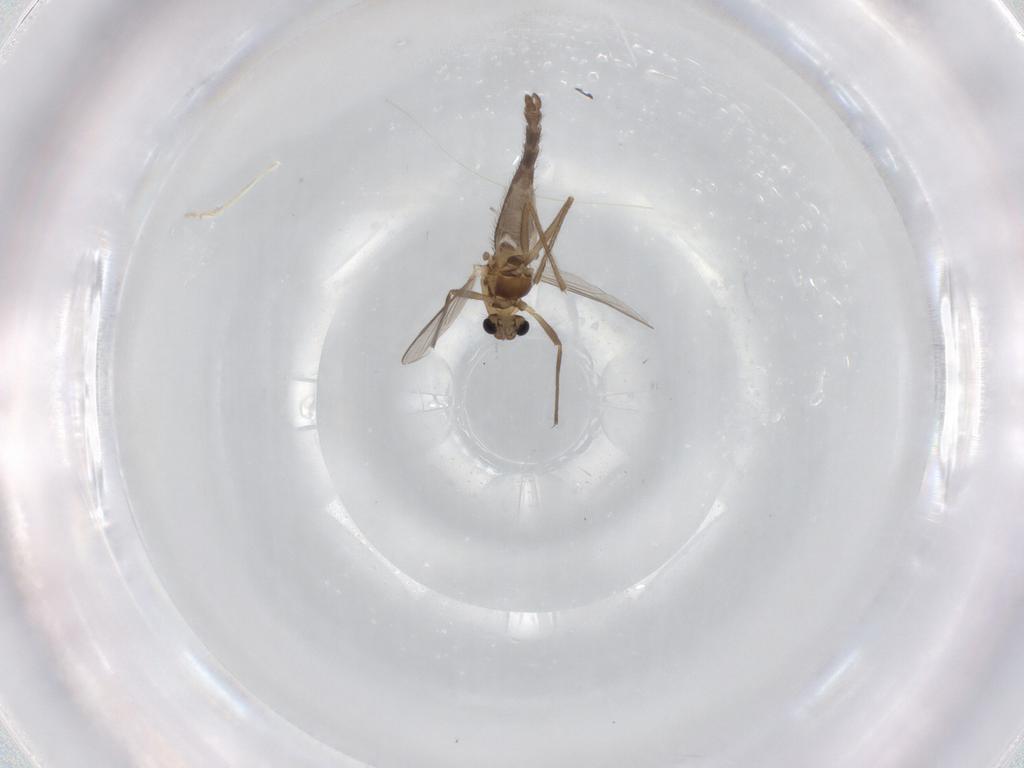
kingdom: Animalia
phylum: Arthropoda
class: Insecta
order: Diptera
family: Chironomidae
